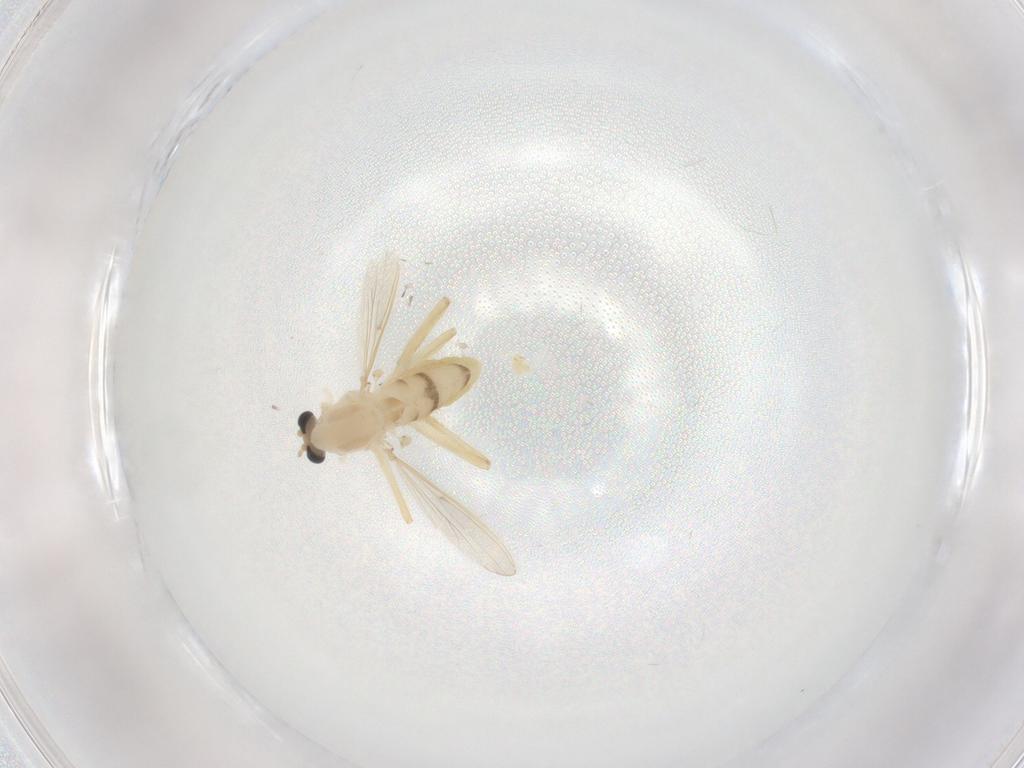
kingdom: Animalia
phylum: Arthropoda
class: Insecta
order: Diptera
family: Chironomidae
